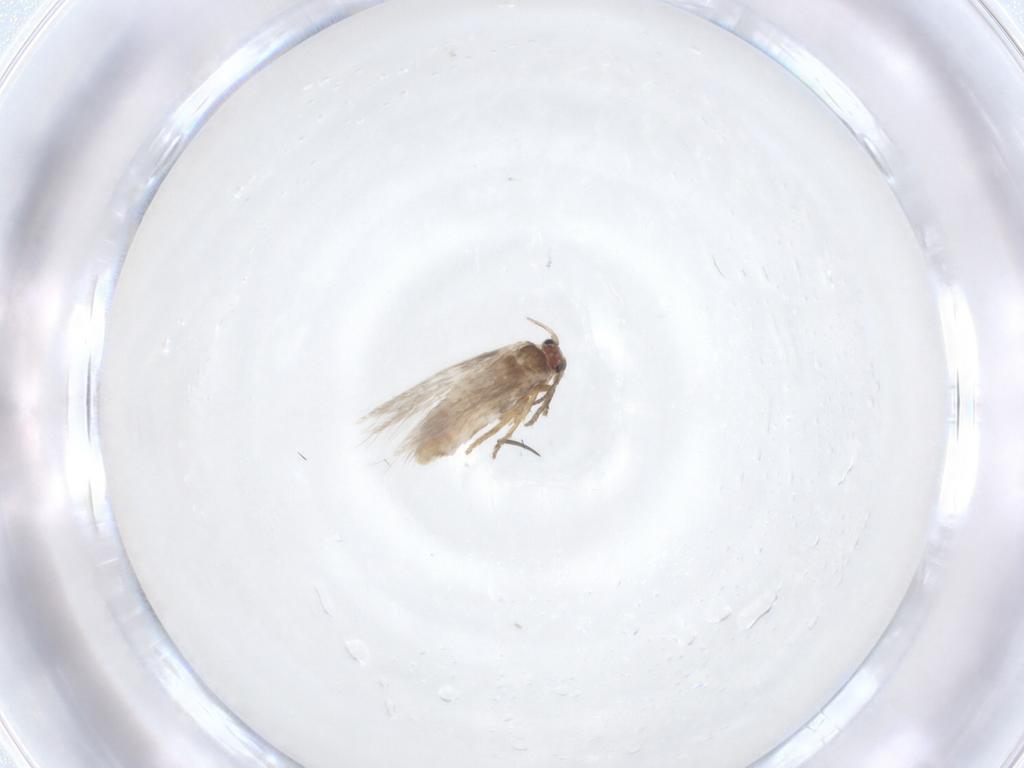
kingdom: Animalia
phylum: Arthropoda
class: Insecta
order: Lepidoptera
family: Nepticulidae
